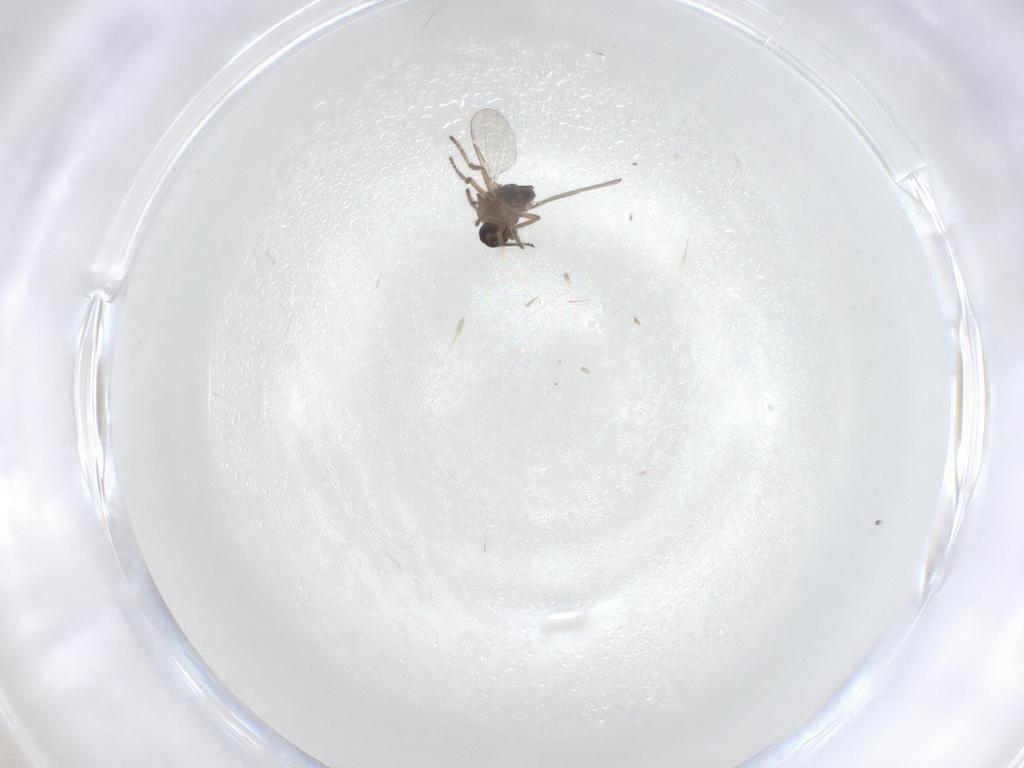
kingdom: Animalia
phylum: Arthropoda
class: Insecta
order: Diptera
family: Ceratopogonidae
